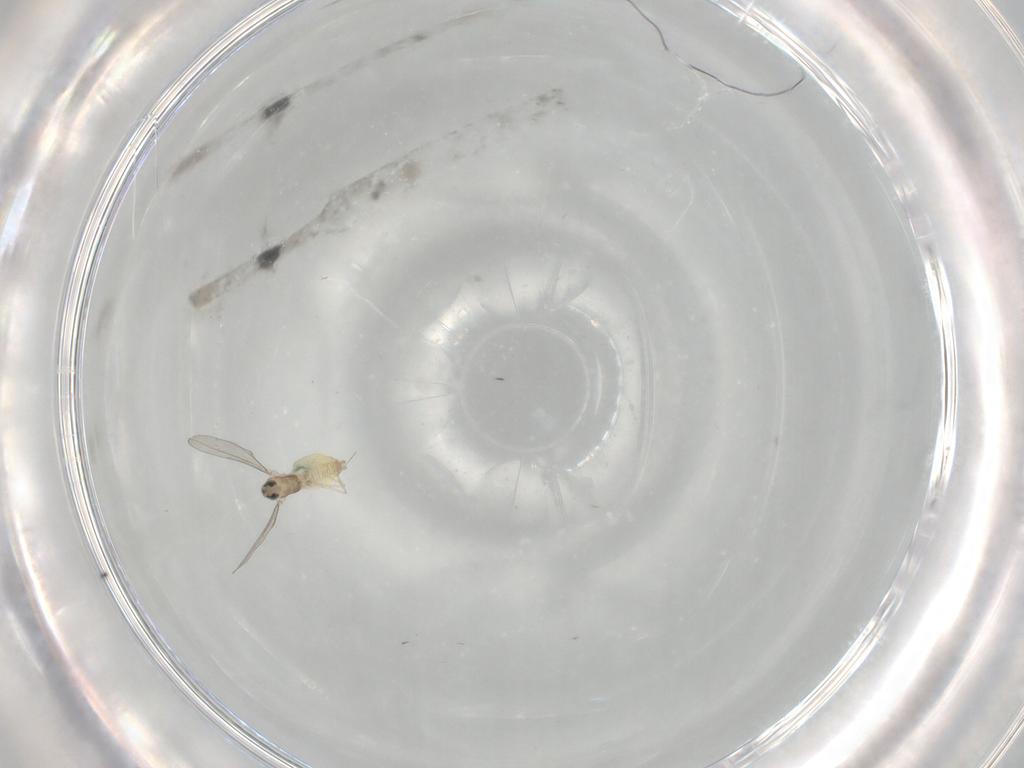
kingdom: Animalia
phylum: Arthropoda
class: Insecta
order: Diptera
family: Cecidomyiidae
